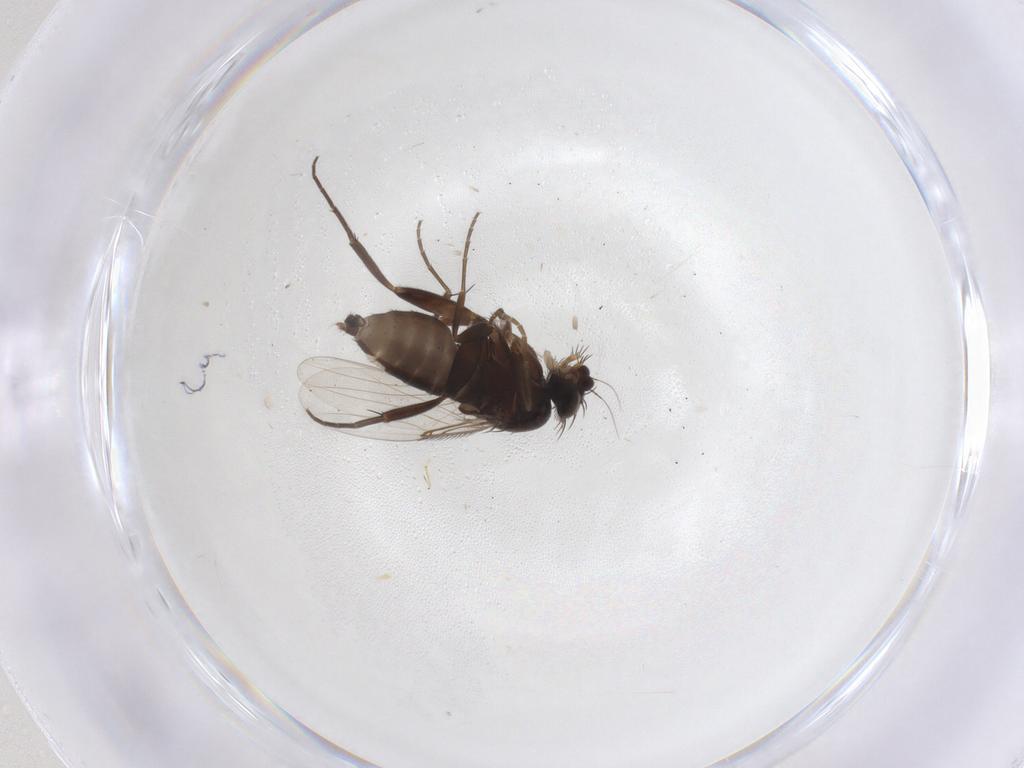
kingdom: Animalia
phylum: Arthropoda
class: Insecta
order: Diptera
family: Phoridae
